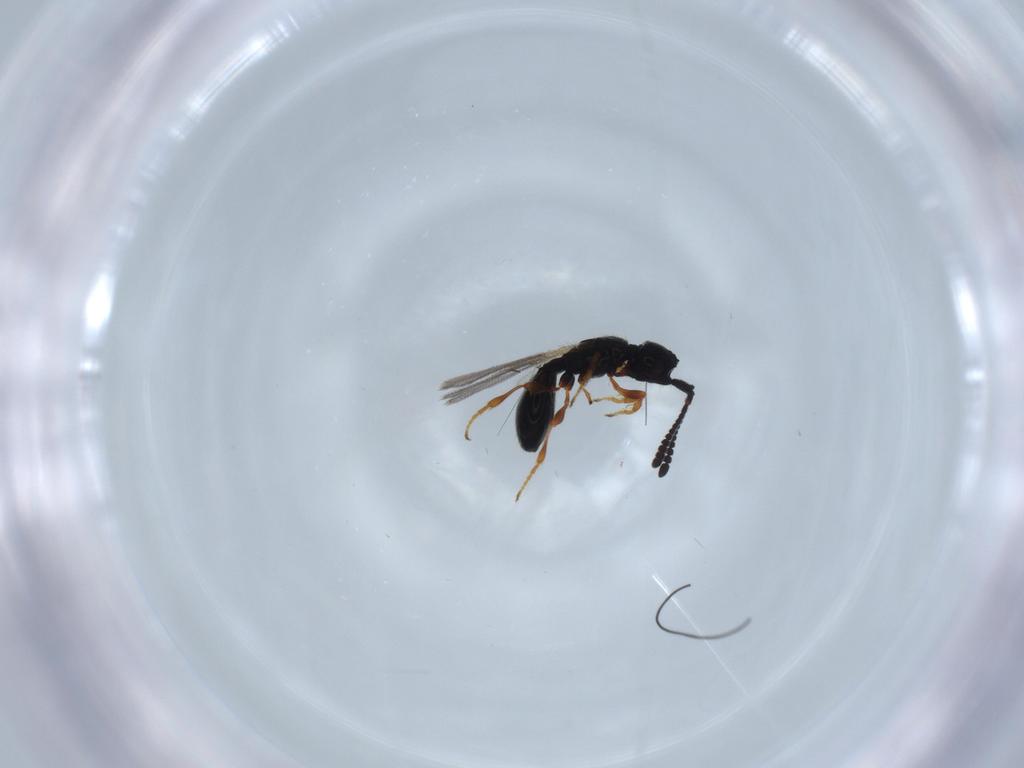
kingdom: Animalia
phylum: Arthropoda
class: Insecta
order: Hymenoptera
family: Diapriidae
